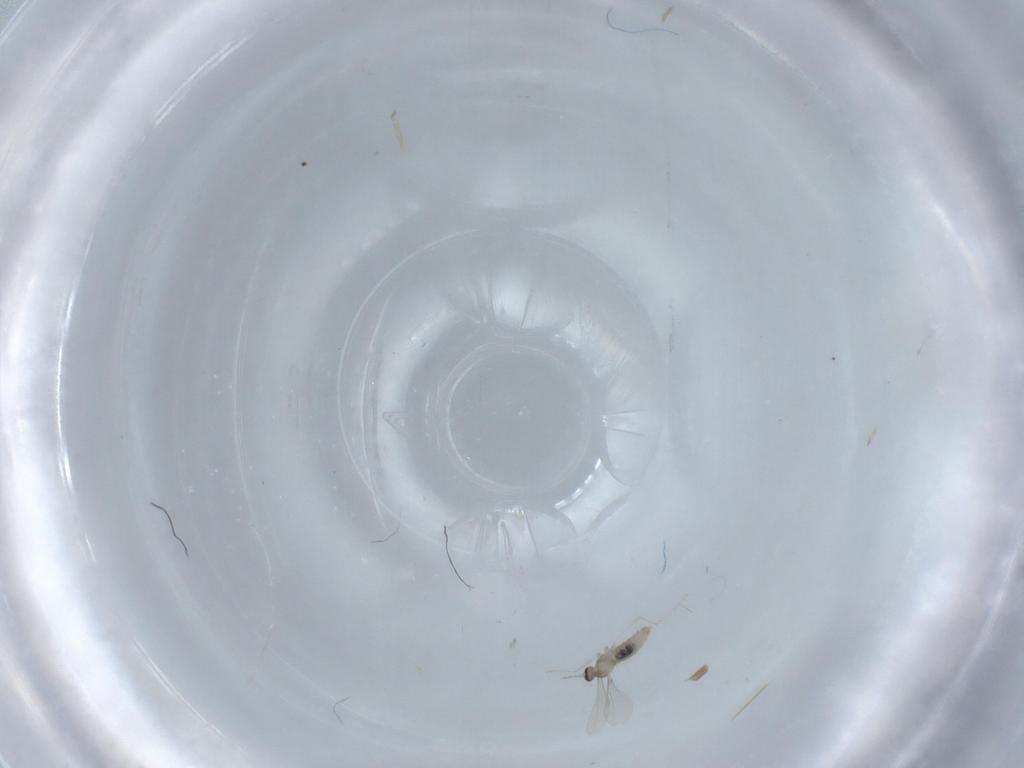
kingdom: Animalia
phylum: Arthropoda
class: Insecta
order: Diptera
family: Cecidomyiidae
